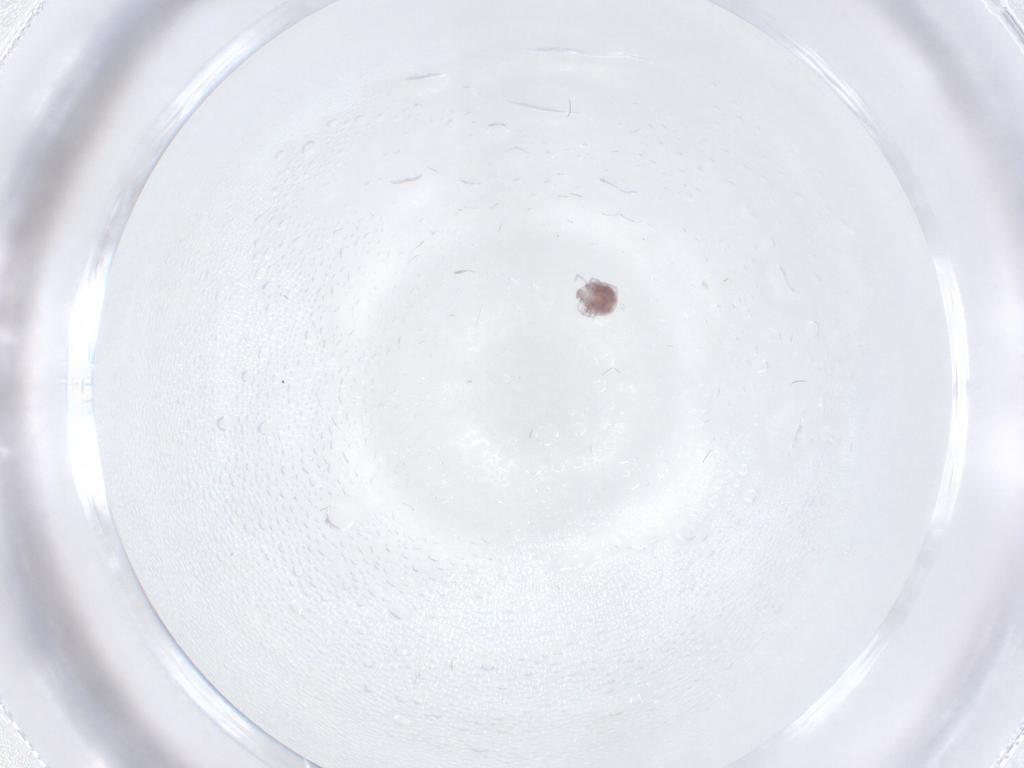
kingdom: Animalia
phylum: Arthropoda
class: Arachnida
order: Trombidiformes
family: Pionidae
